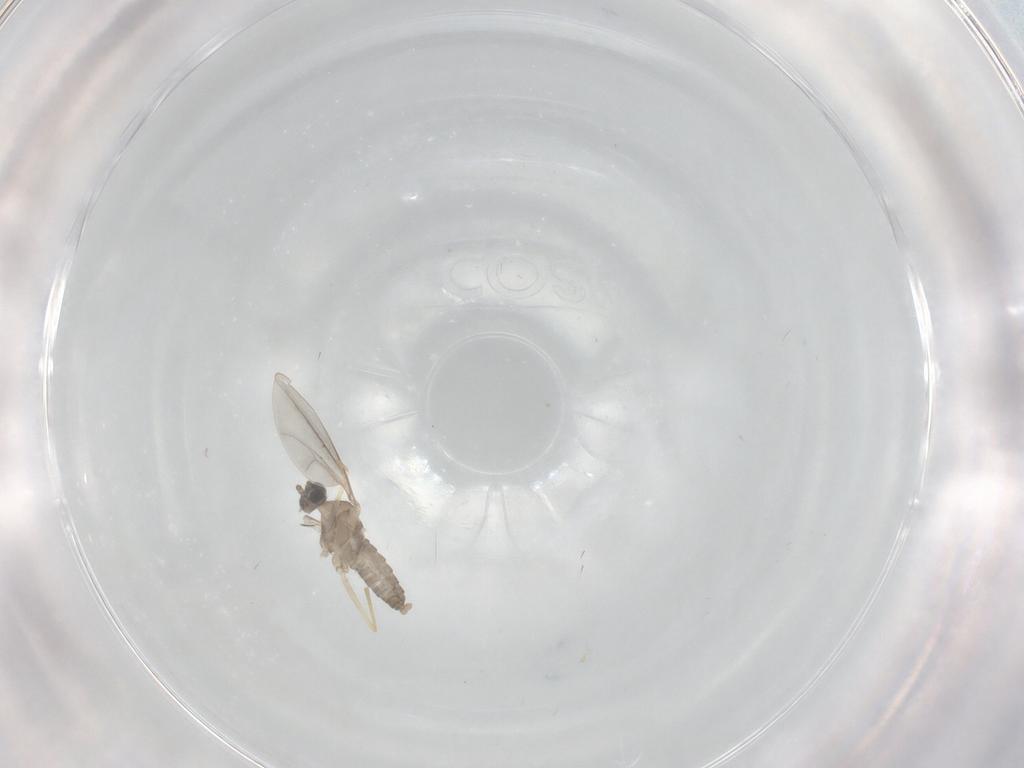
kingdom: Animalia
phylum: Arthropoda
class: Insecta
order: Diptera
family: Cecidomyiidae
